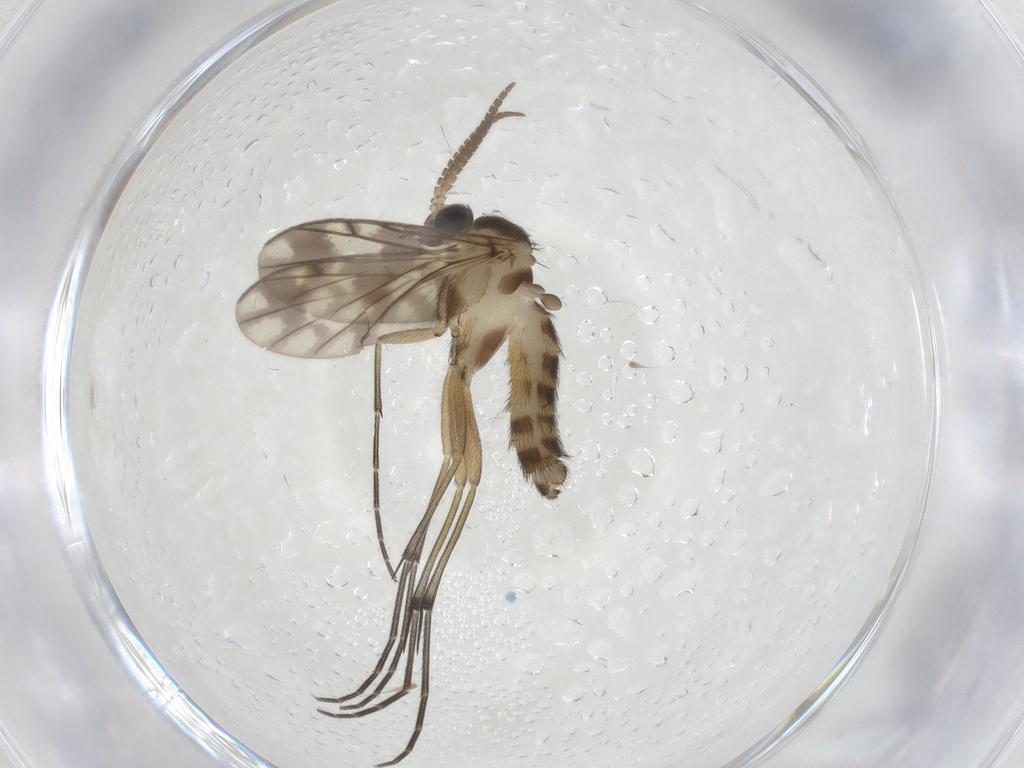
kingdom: Animalia
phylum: Arthropoda
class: Insecta
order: Diptera
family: Keroplatidae
